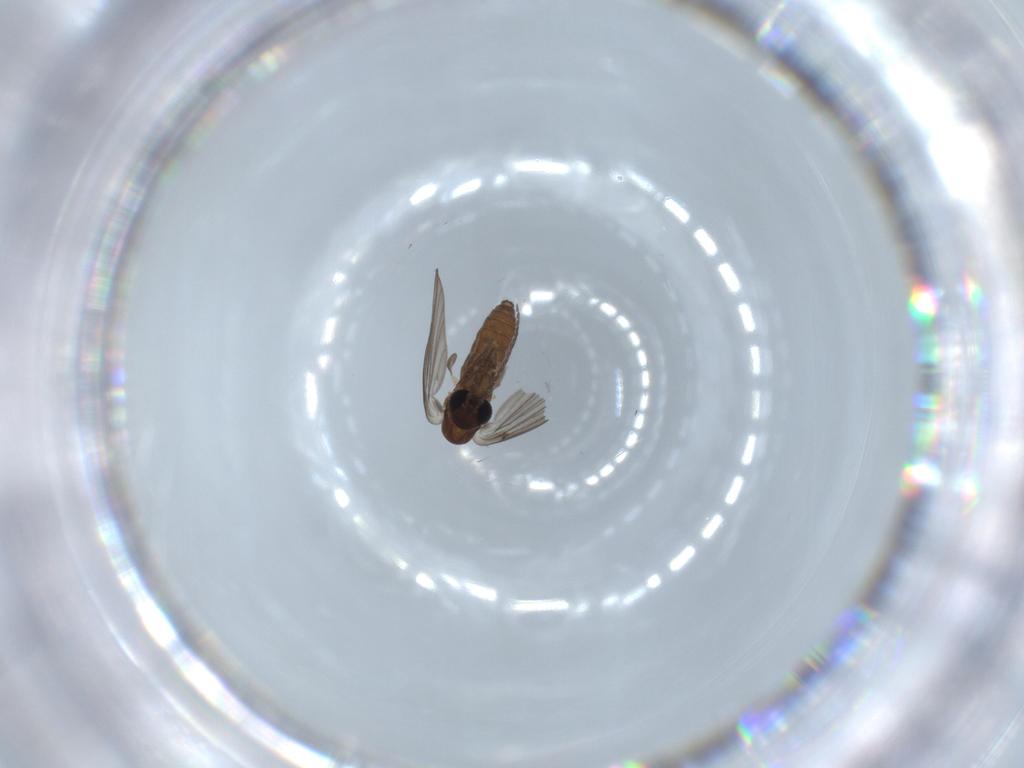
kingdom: Animalia
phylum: Arthropoda
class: Insecta
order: Diptera
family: Psychodidae
